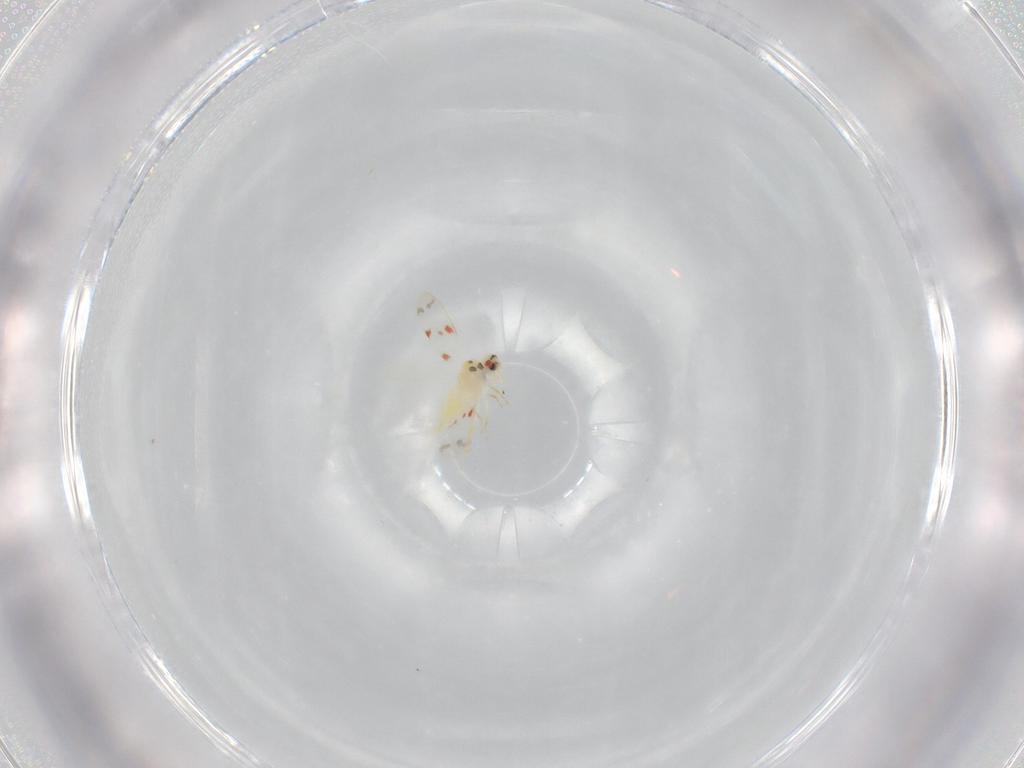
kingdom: Animalia
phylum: Arthropoda
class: Insecta
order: Hemiptera
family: Aleyrodidae
